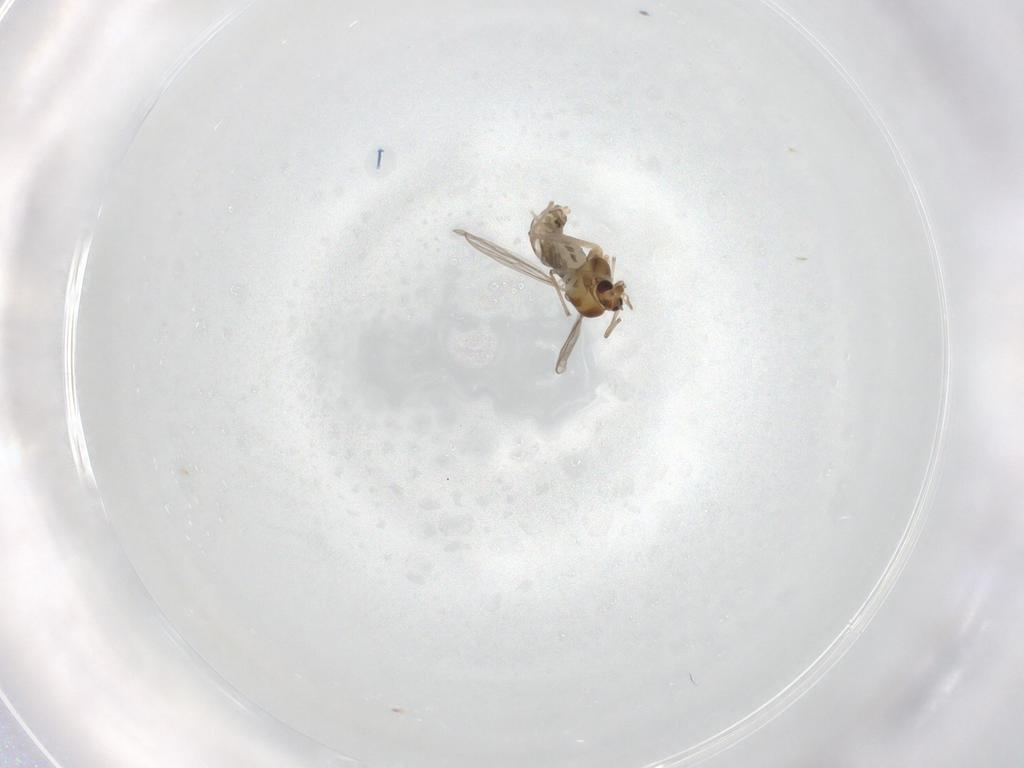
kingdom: Animalia
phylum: Arthropoda
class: Insecta
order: Diptera
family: Chironomidae
